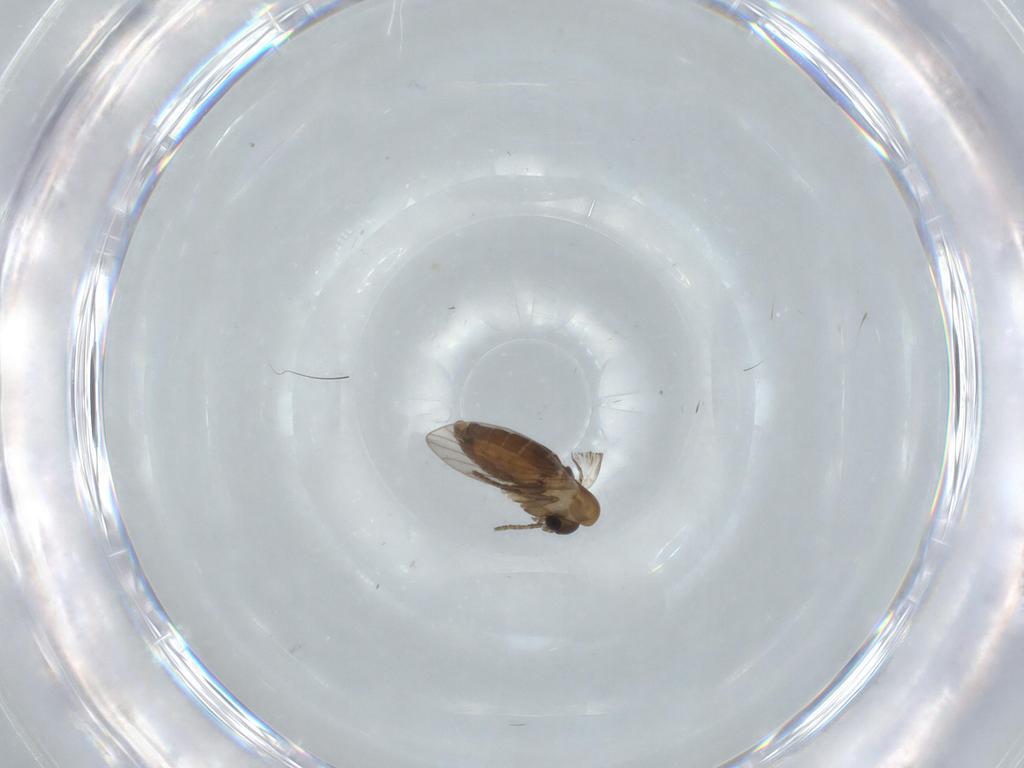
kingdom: Animalia
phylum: Arthropoda
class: Insecta
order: Diptera
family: Psychodidae
